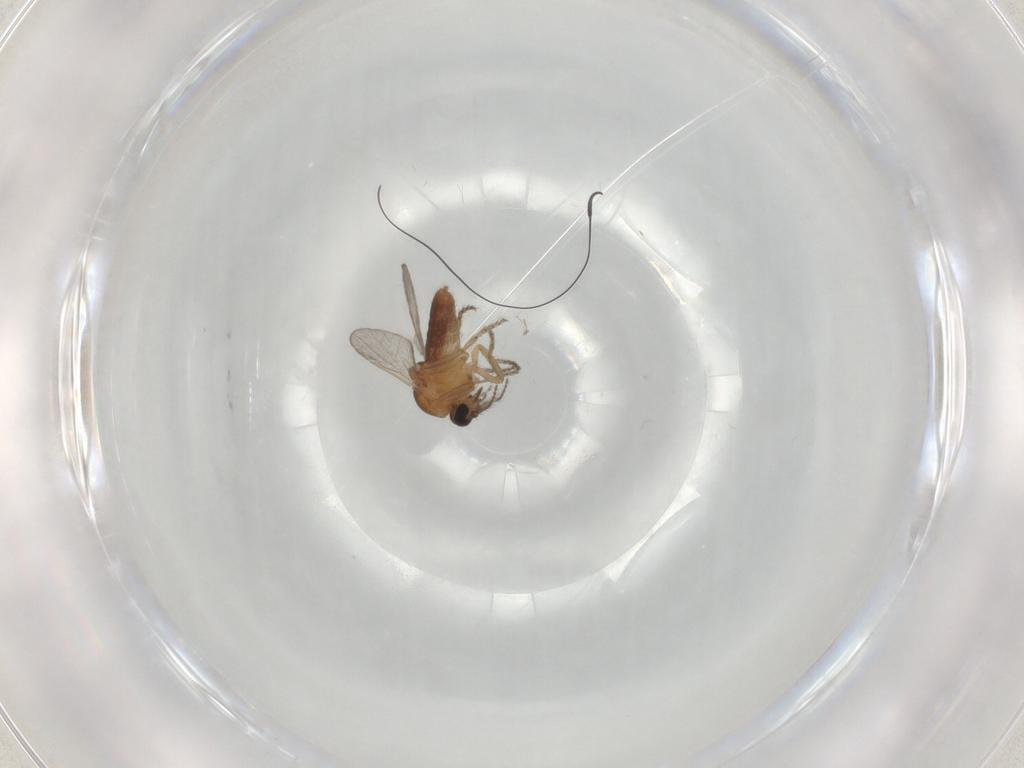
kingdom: Animalia
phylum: Arthropoda
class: Insecta
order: Diptera
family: Ceratopogonidae
